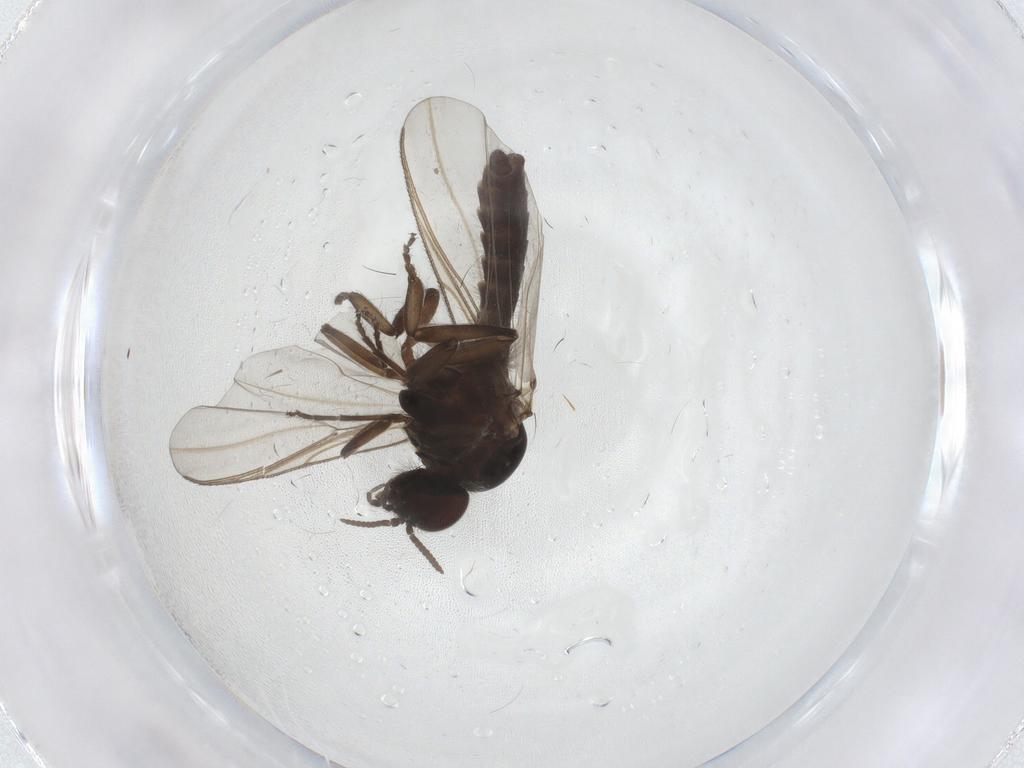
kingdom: Animalia
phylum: Arthropoda
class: Insecta
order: Diptera
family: Simuliidae
